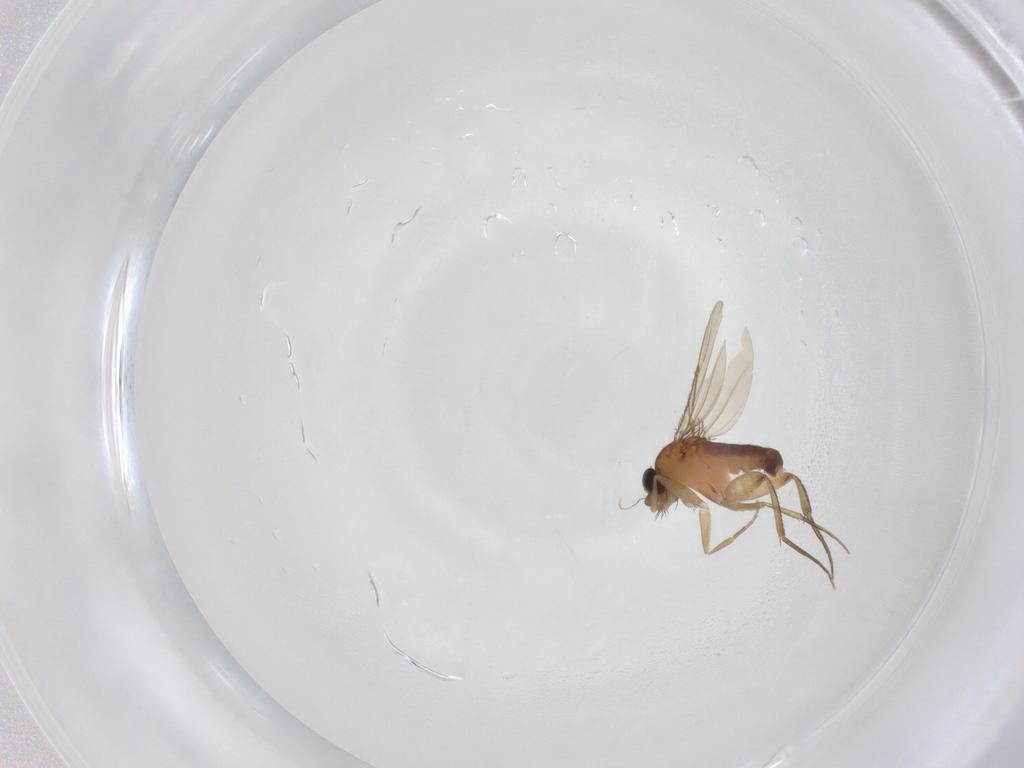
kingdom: Animalia
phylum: Arthropoda
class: Insecta
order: Diptera
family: Phoridae
